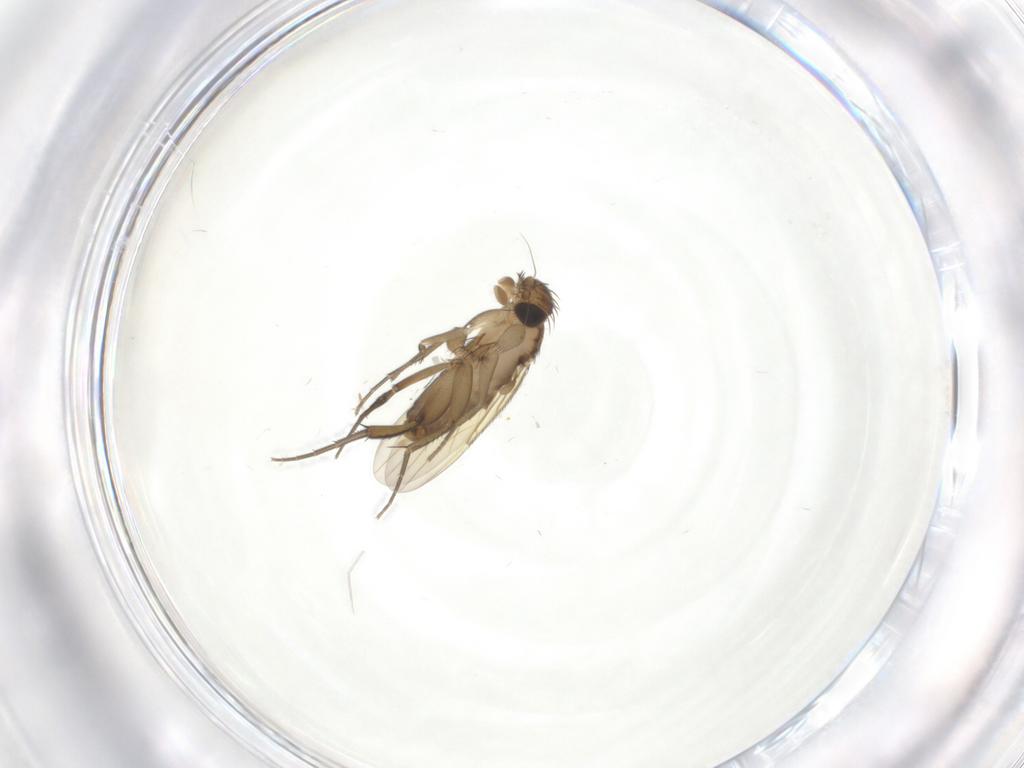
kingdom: Animalia
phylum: Arthropoda
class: Insecta
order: Diptera
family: Phoridae
